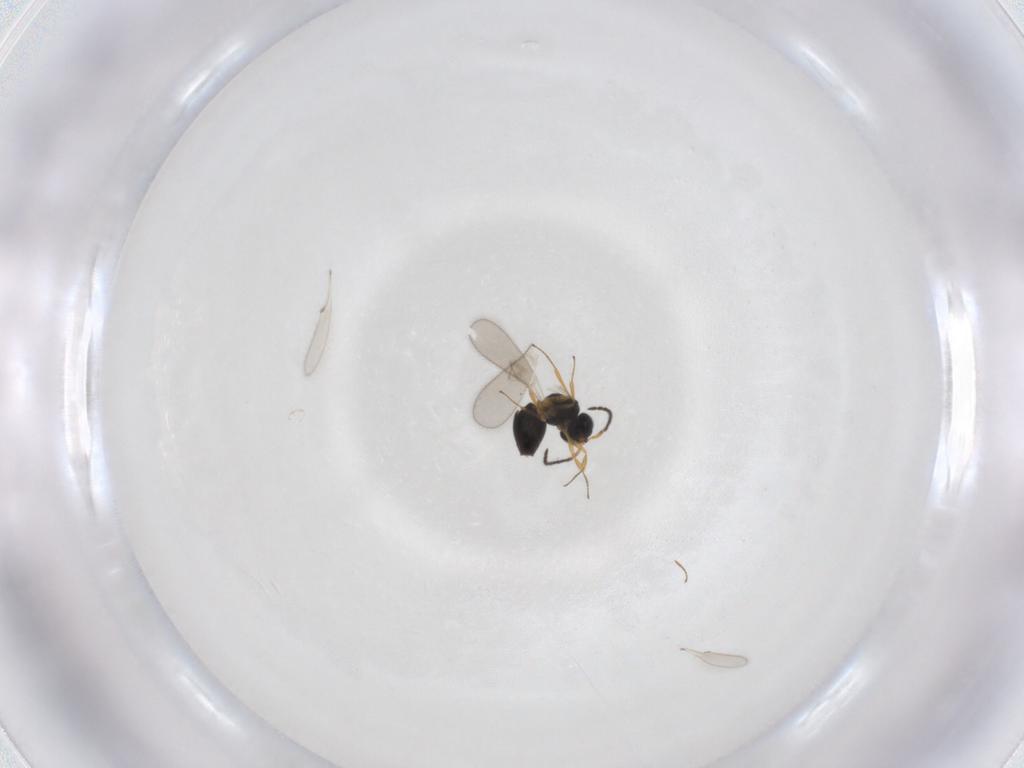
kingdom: Animalia
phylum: Arthropoda
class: Insecta
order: Hymenoptera
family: Scelionidae
